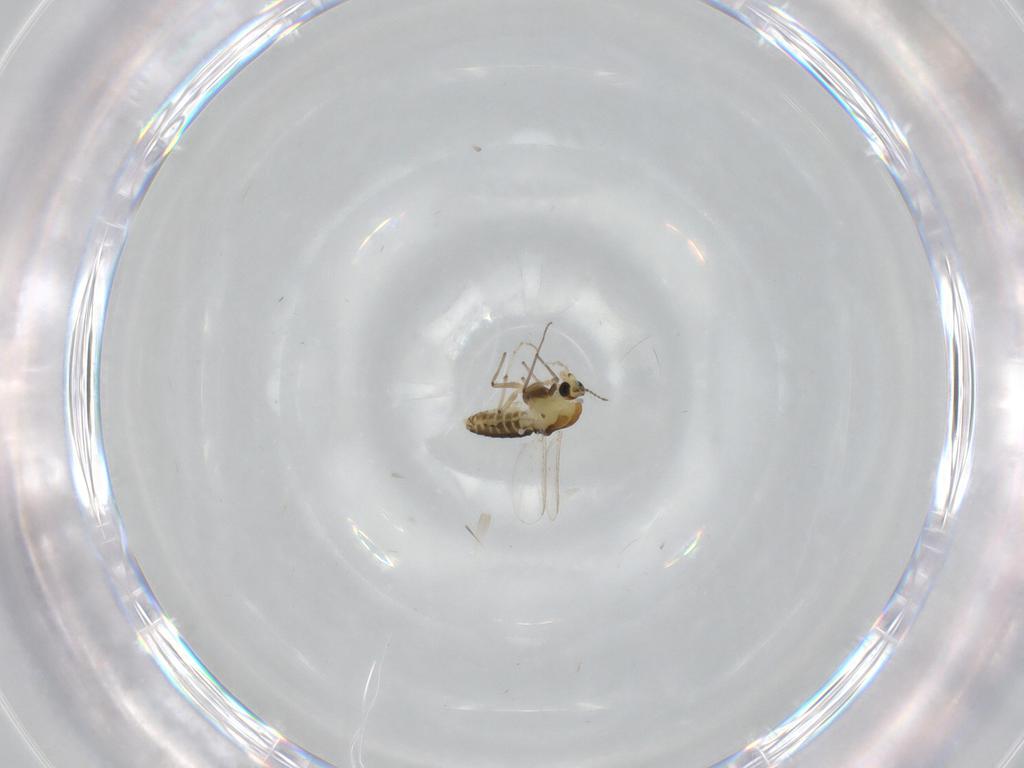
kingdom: Animalia
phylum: Arthropoda
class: Insecta
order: Diptera
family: Chironomidae
